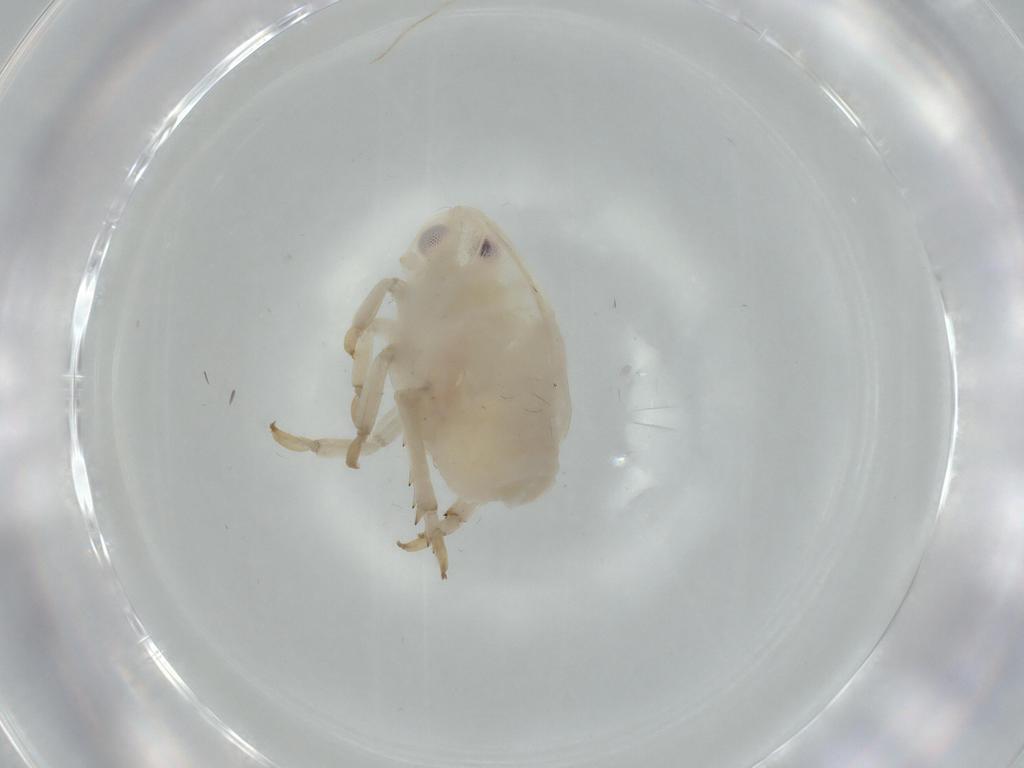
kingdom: Animalia
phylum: Arthropoda
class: Insecta
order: Hemiptera
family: Flatidae
